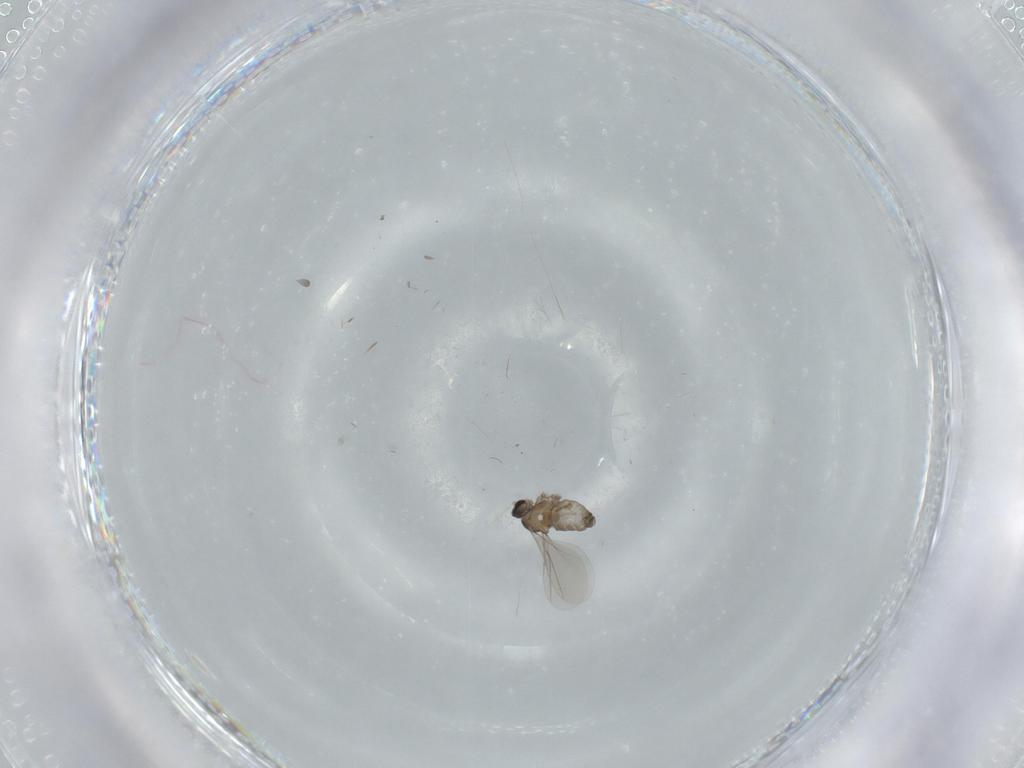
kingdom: Animalia
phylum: Arthropoda
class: Insecta
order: Diptera
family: Cecidomyiidae
